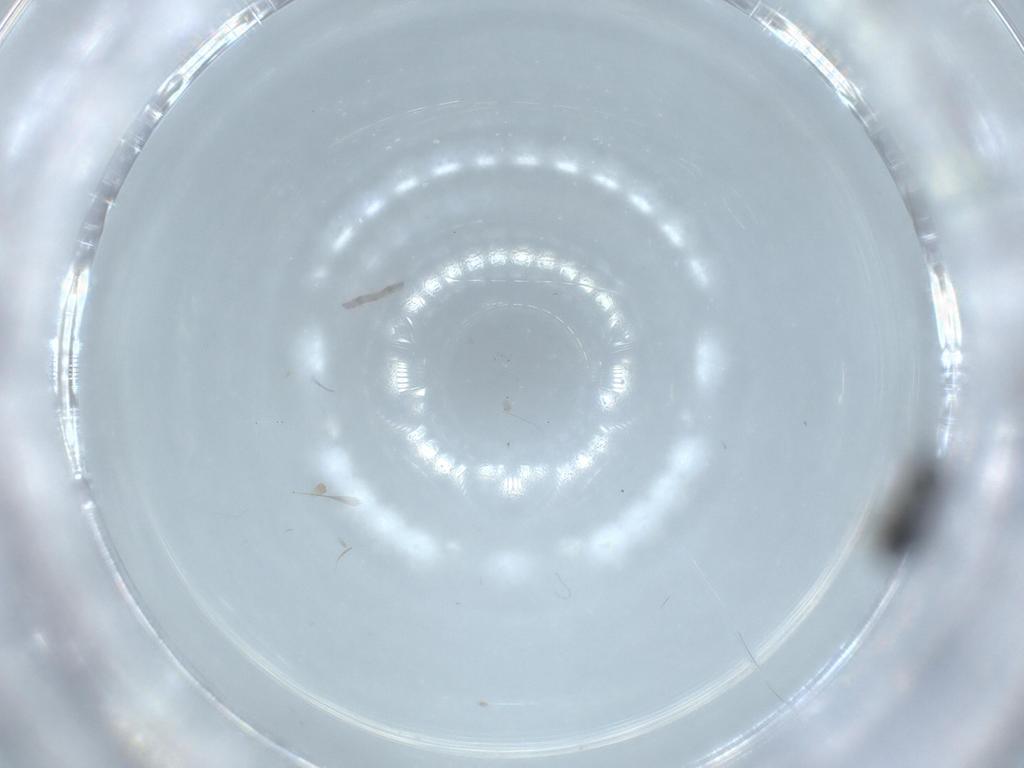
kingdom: Animalia
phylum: Arthropoda
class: Insecta
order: Hymenoptera
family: Platygastridae
